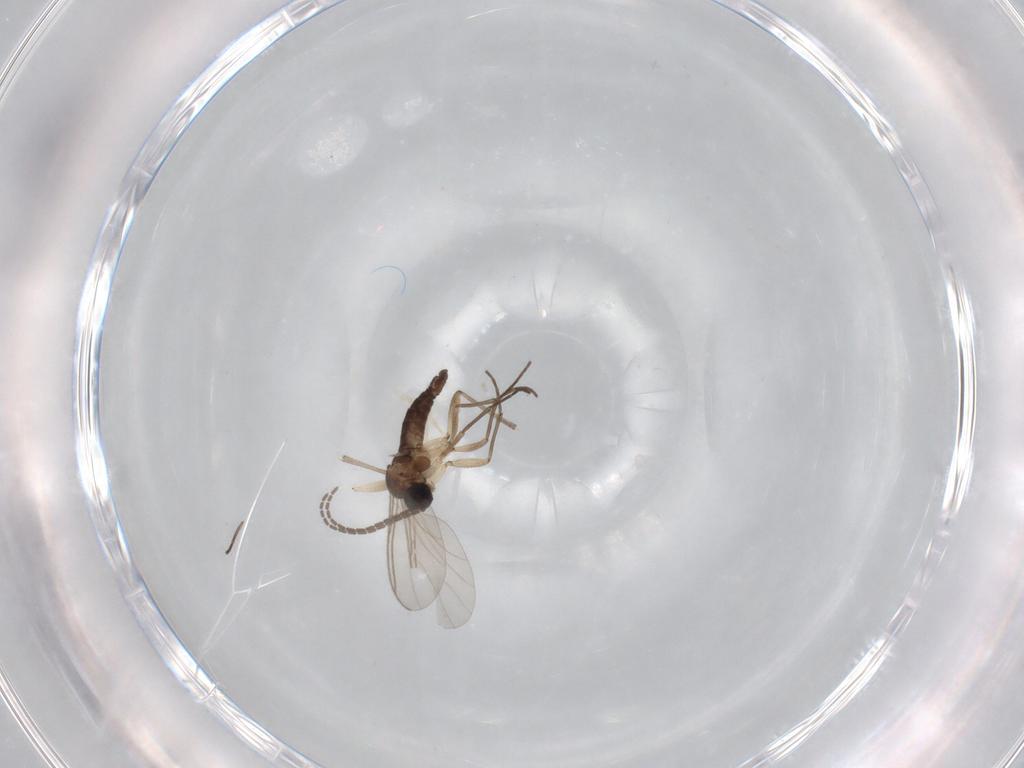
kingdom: Animalia
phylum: Arthropoda
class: Insecta
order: Diptera
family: Sciaridae
